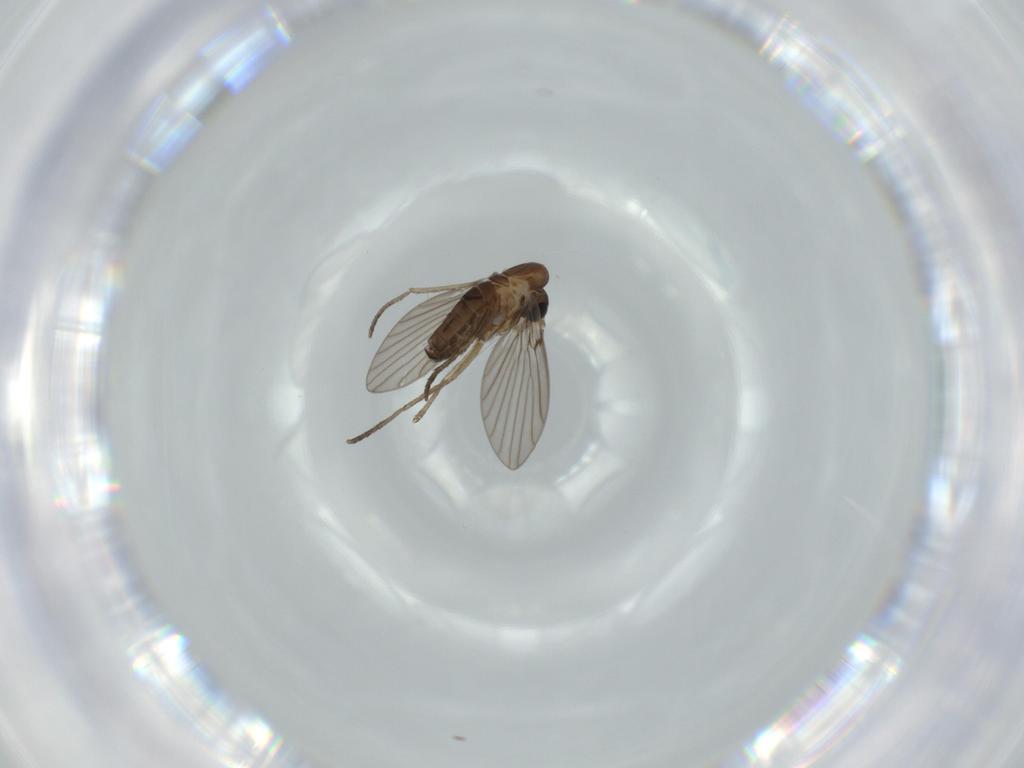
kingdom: Animalia
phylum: Arthropoda
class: Insecta
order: Diptera
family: Psychodidae
